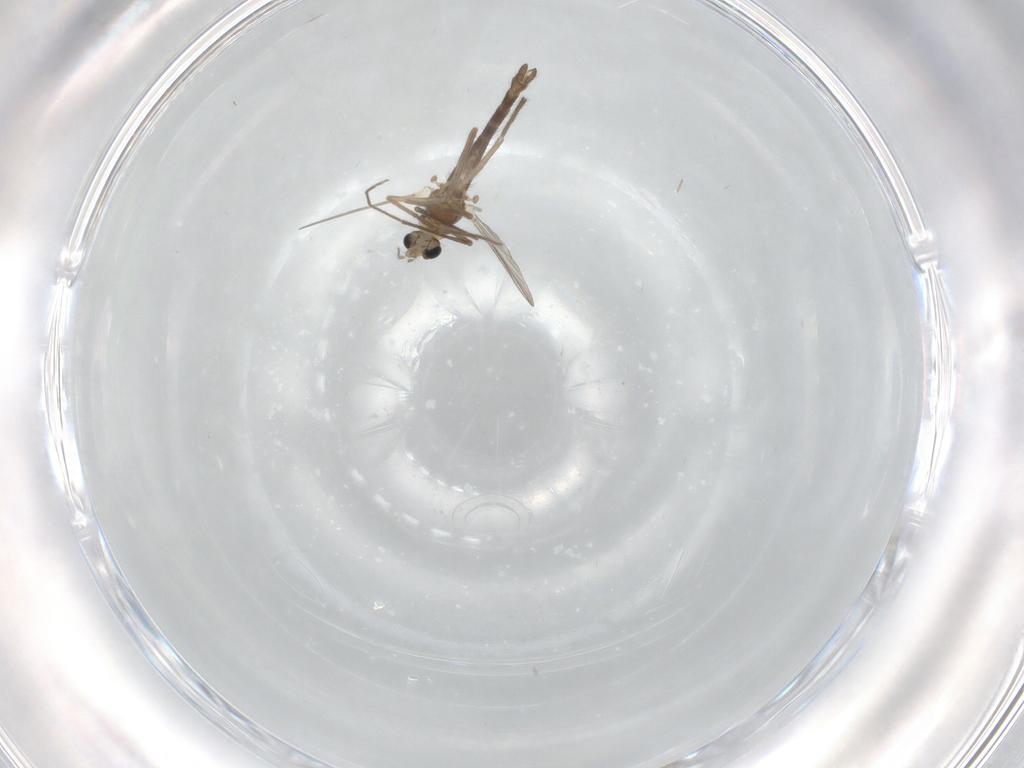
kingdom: Animalia
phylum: Arthropoda
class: Insecta
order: Diptera
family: Chironomidae
